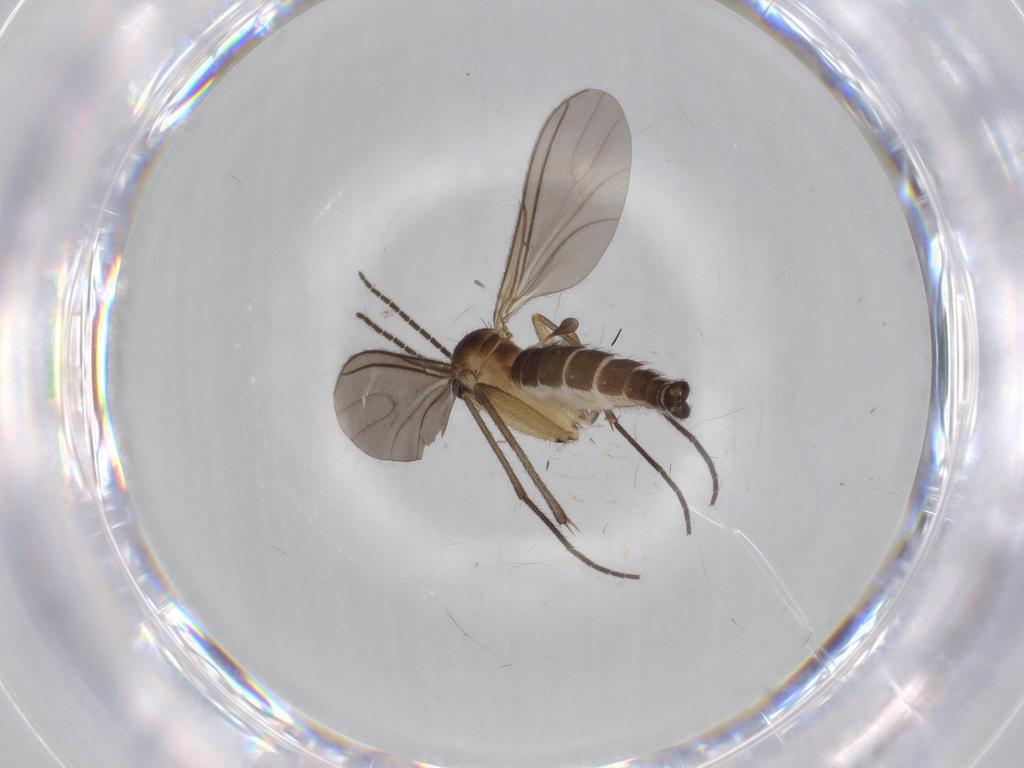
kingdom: Animalia
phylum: Arthropoda
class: Insecta
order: Diptera
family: Sciaridae
